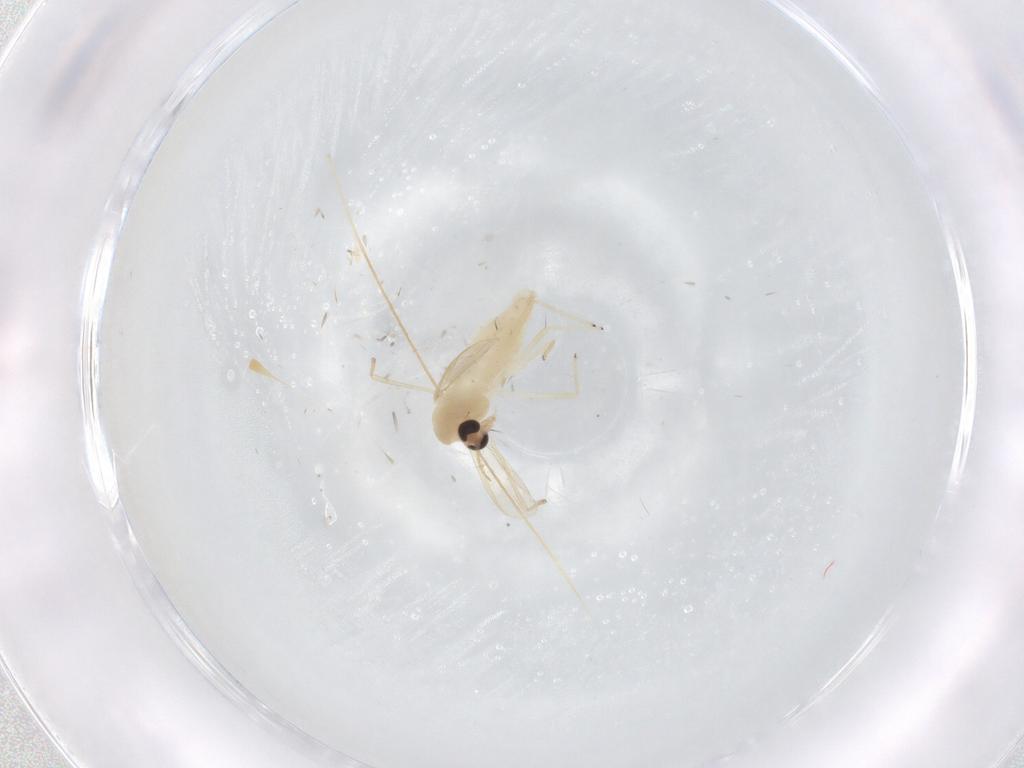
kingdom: Animalia
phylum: Arthropoda
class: Insecta
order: Diptera
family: Chironomidae
